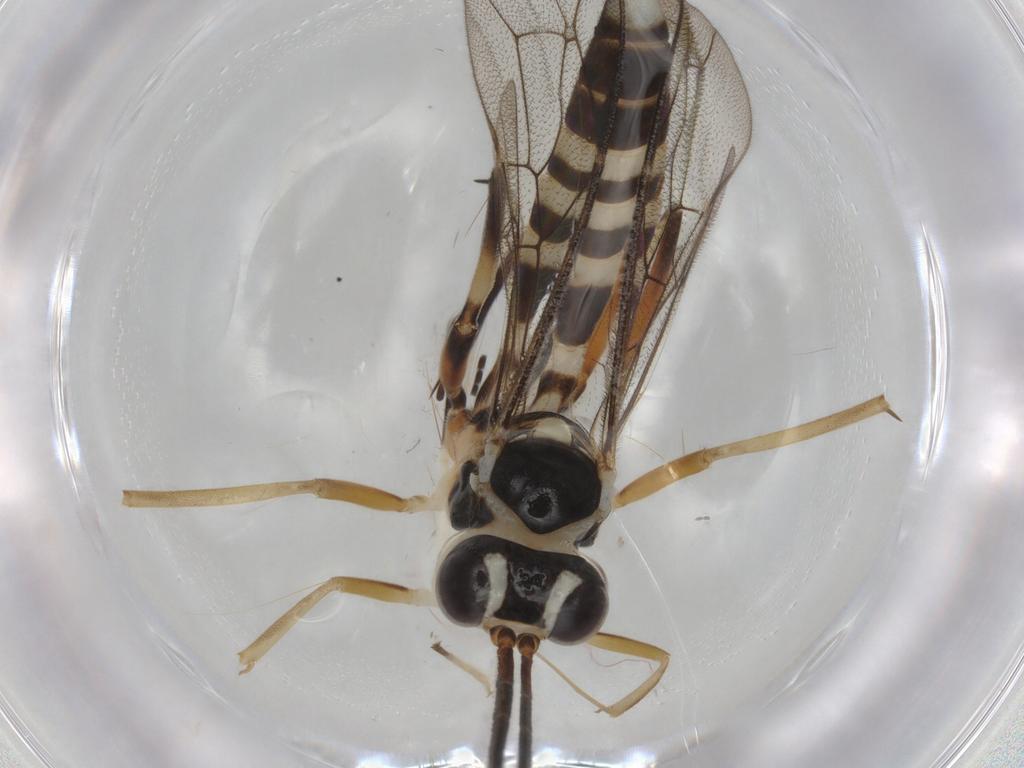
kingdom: Animalia
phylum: Arthropoda
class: Insecta
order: Hymenoptera
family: Ichneumonidae
